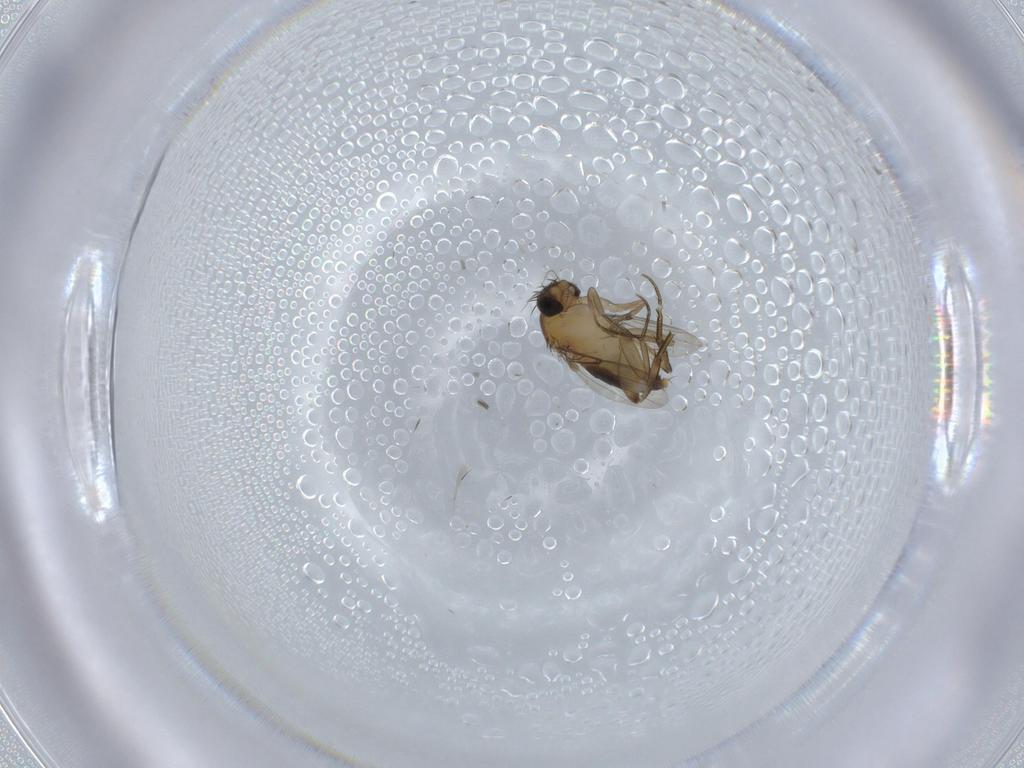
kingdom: Animalia
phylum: Arthropoda
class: Insecta
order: Diptera
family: Phoridae
